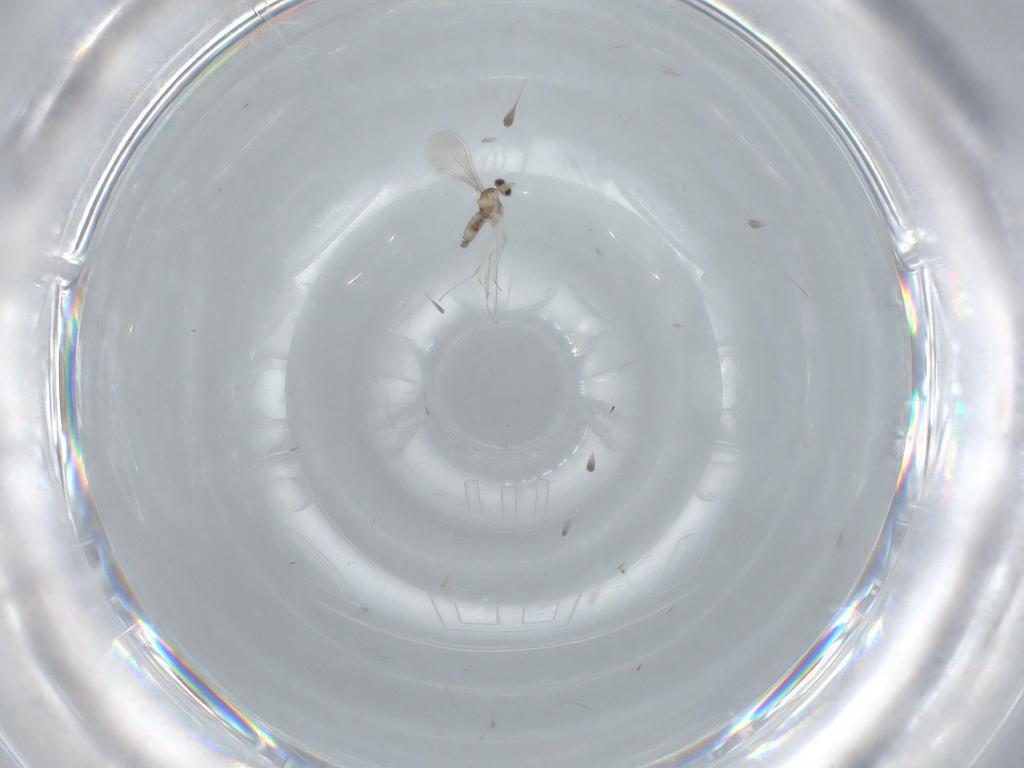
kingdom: Animalia
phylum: Arthropoda
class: Insecta
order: Diptera
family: Cecidomyiidae
